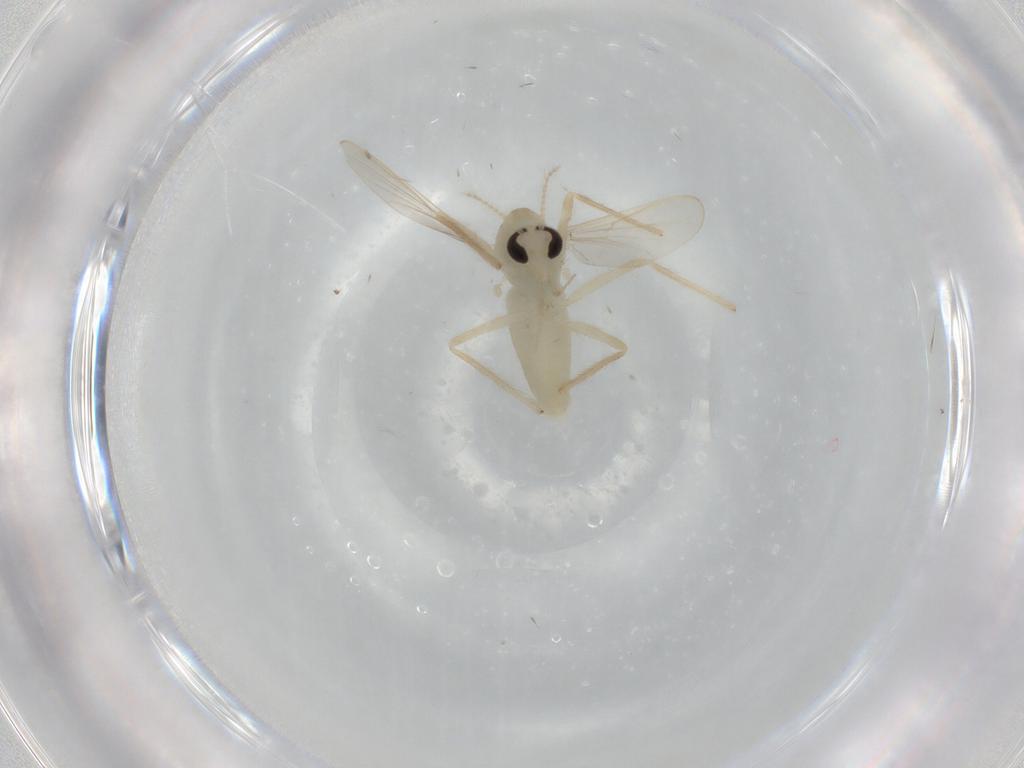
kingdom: Animalia
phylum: Arthropoda
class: Insecta
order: Diptera
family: Chironomidae
